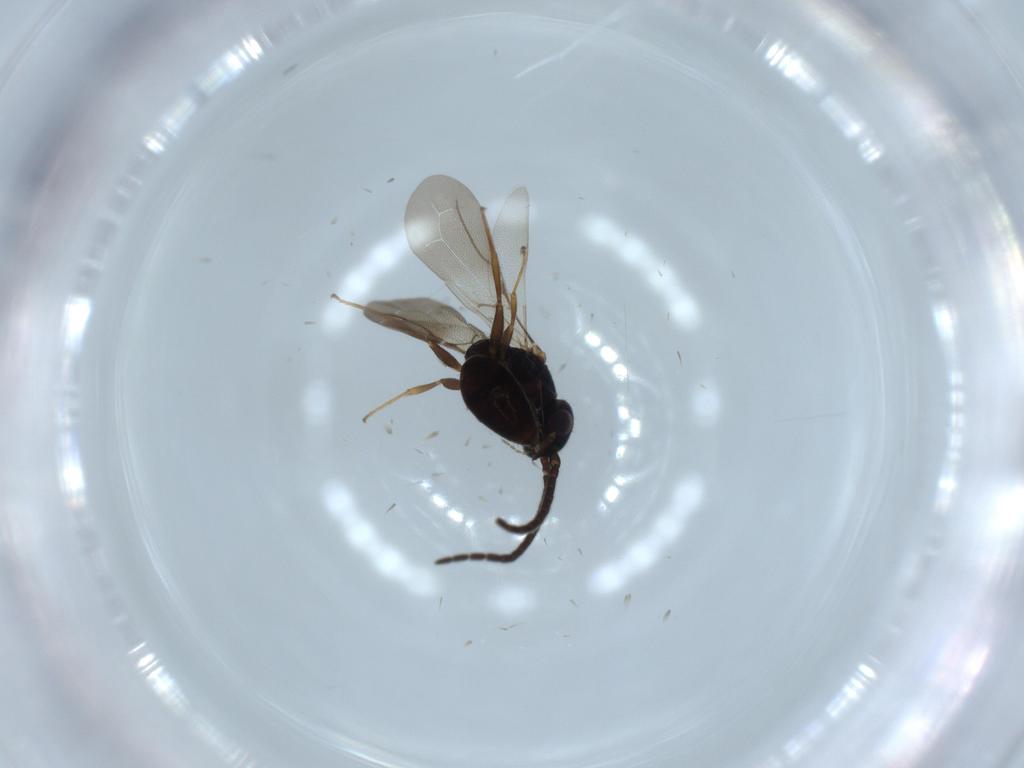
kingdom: Animalia
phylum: Arthropoda
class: Insecta
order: Hymenoptera
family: Bethylidae
